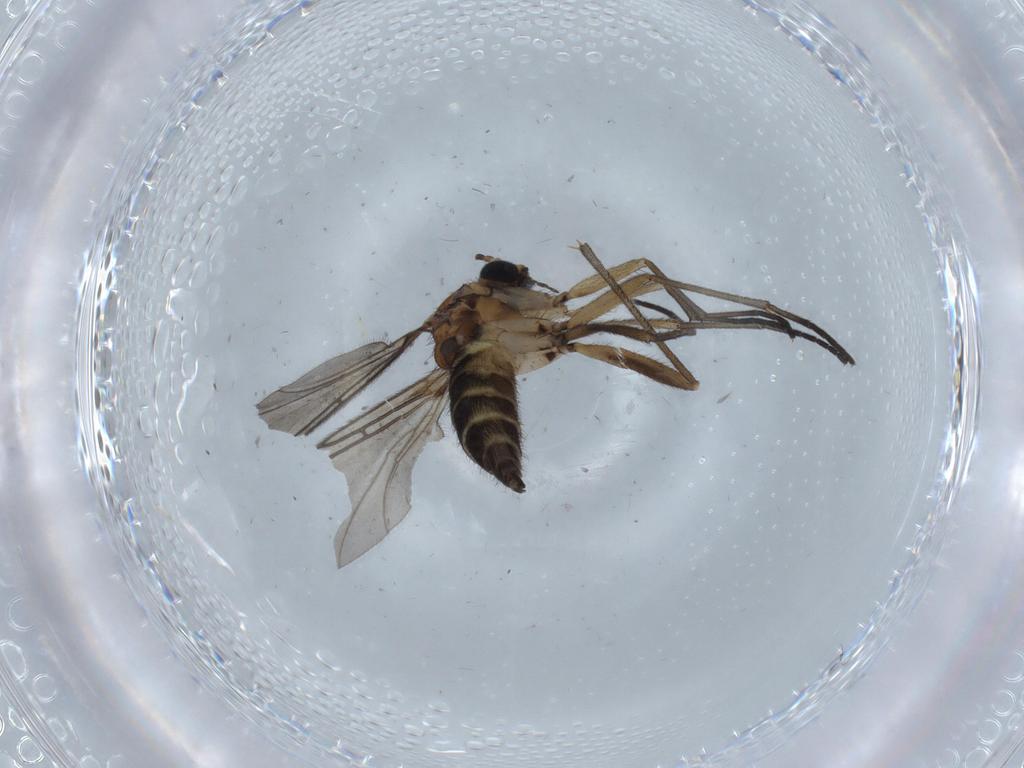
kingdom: Animalia
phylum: Arthropoda
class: Insecta
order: Diptera
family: Sciaridae
